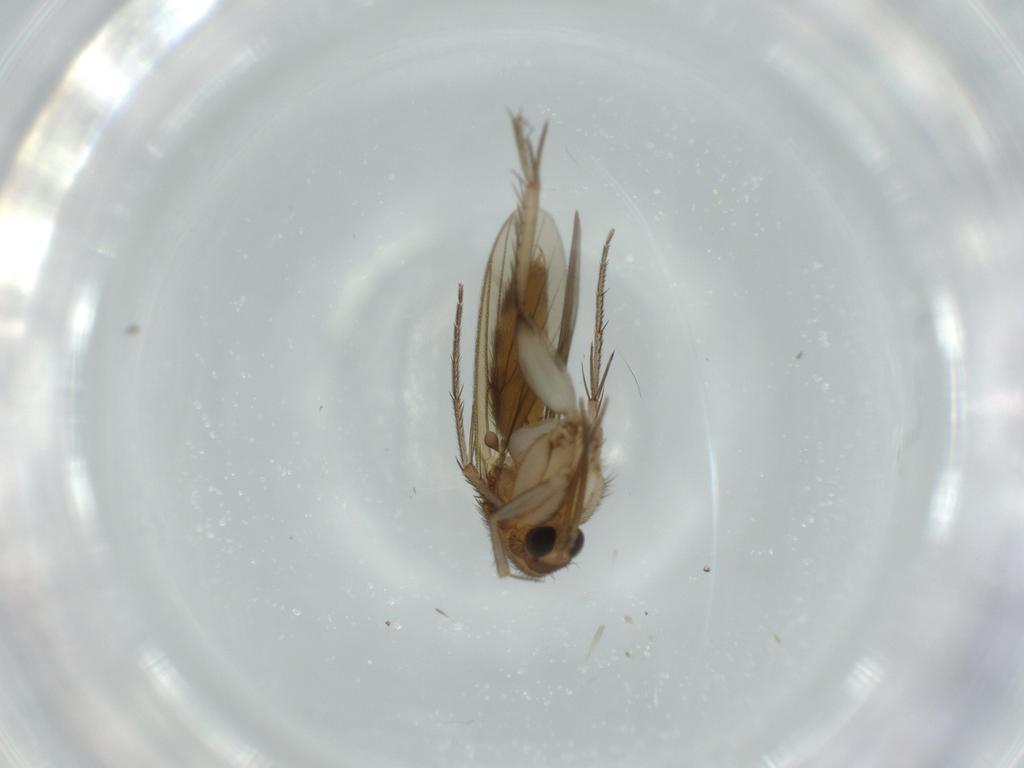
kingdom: Animalia
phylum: Arthropoda
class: Insecta
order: Diptera
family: Mycetophilidae
